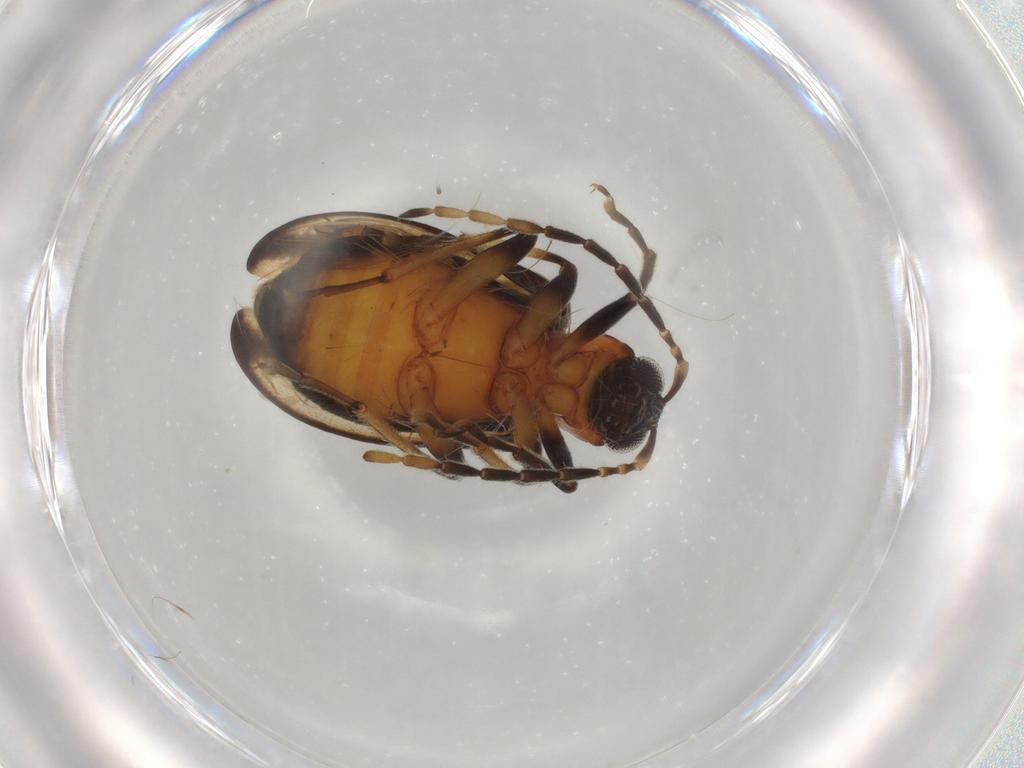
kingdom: Animalia
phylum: Arthropoda
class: Insecta
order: Coleoptera
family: Chrysomelidae
